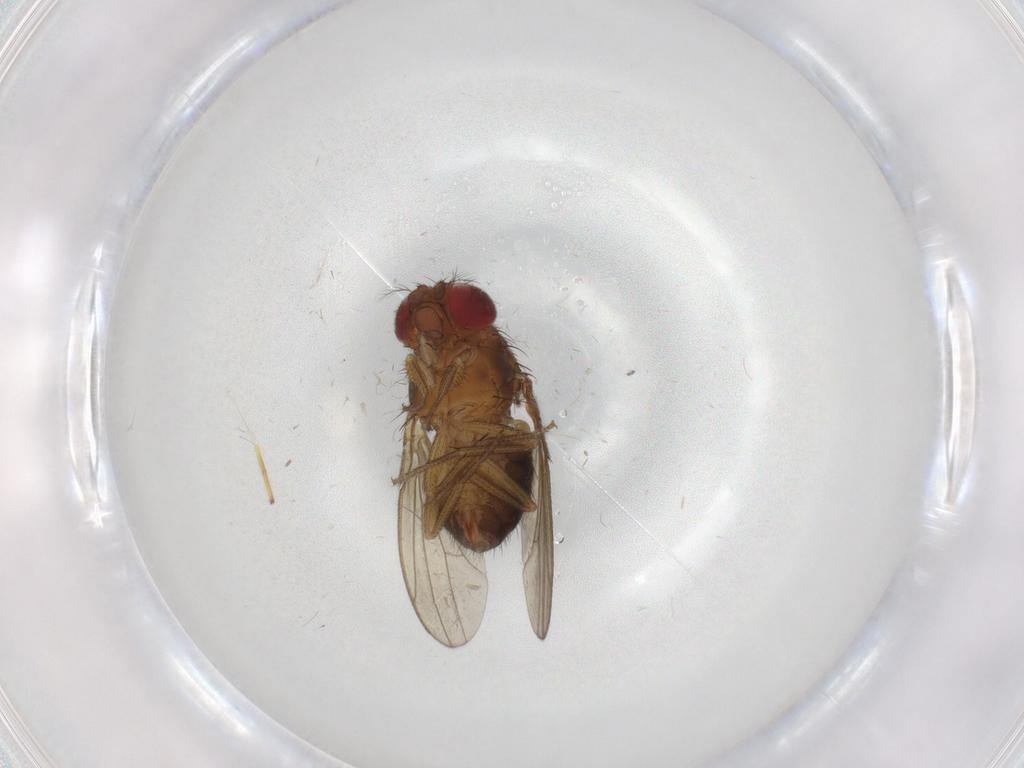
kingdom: Animalia
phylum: Arthropoda
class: Insecta
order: Diptera
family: Drosophilidae
